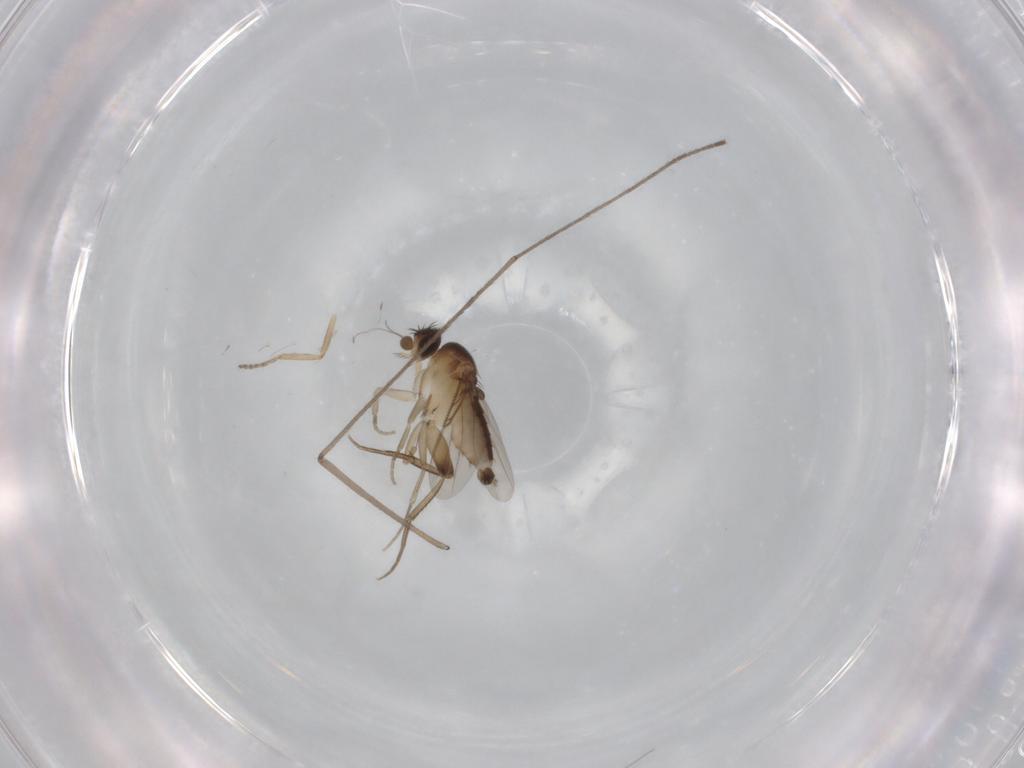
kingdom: Animalia
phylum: Arthropoda
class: Insecta
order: Diptera
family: Phoridae
